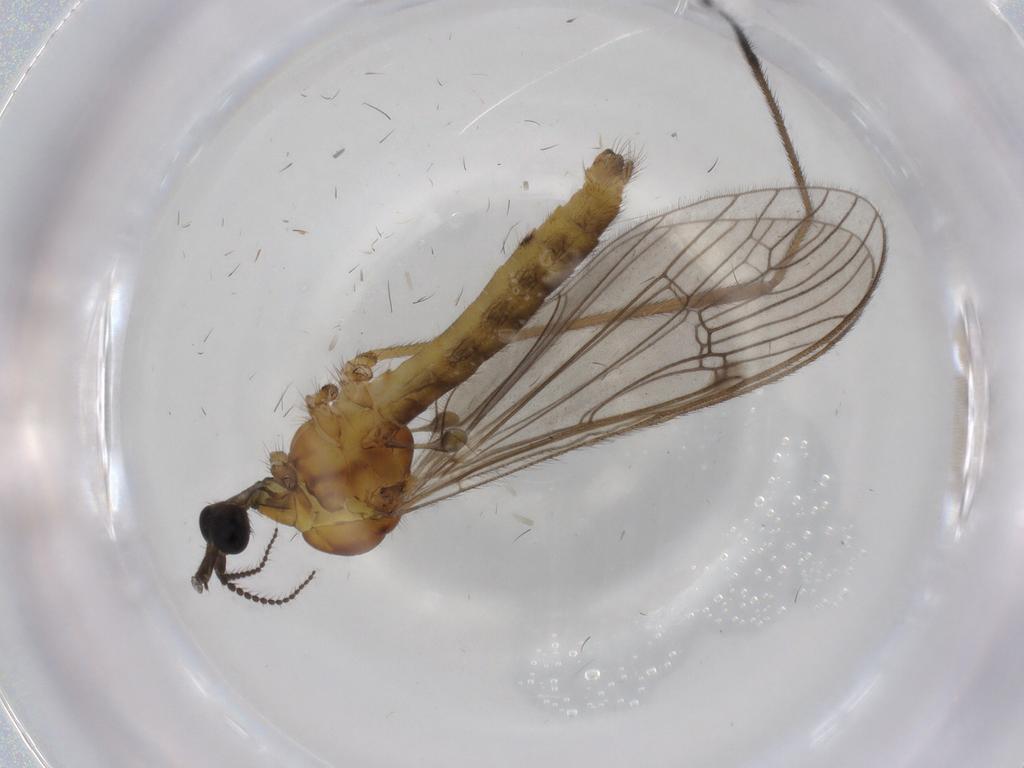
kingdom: Animalia
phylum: Arthropoda
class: Insecta
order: Diptera
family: Limoniidae
